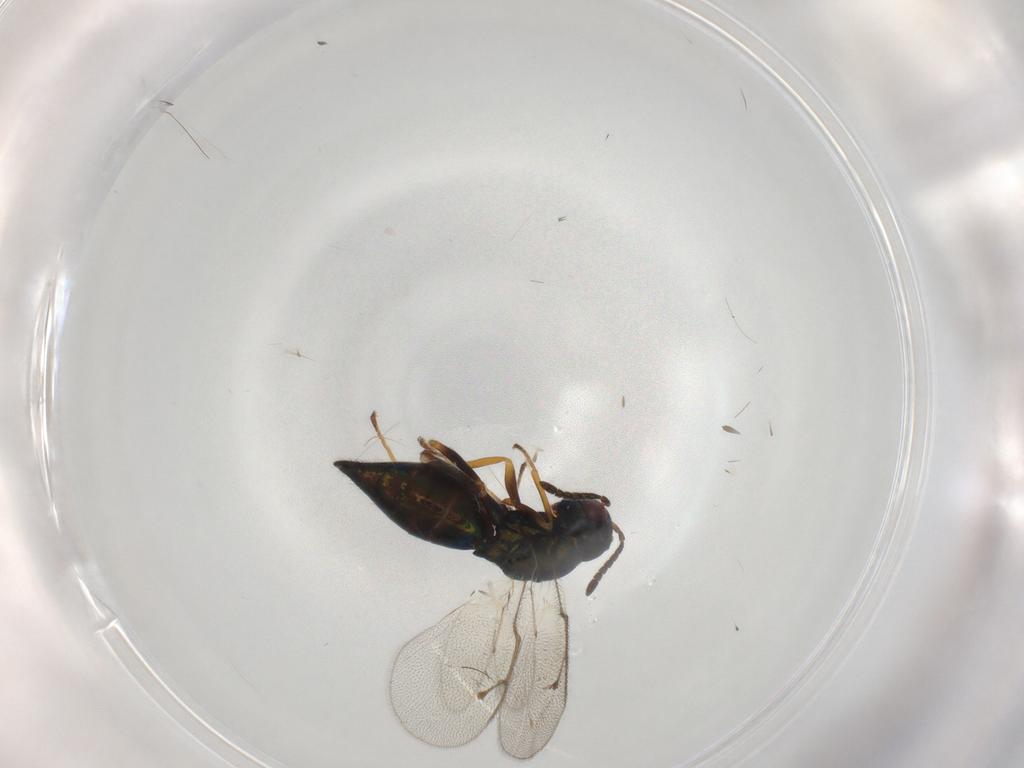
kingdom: Animalia
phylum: Arthropoda
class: Insecta
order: Hymenoptera
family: Pteromalidae
